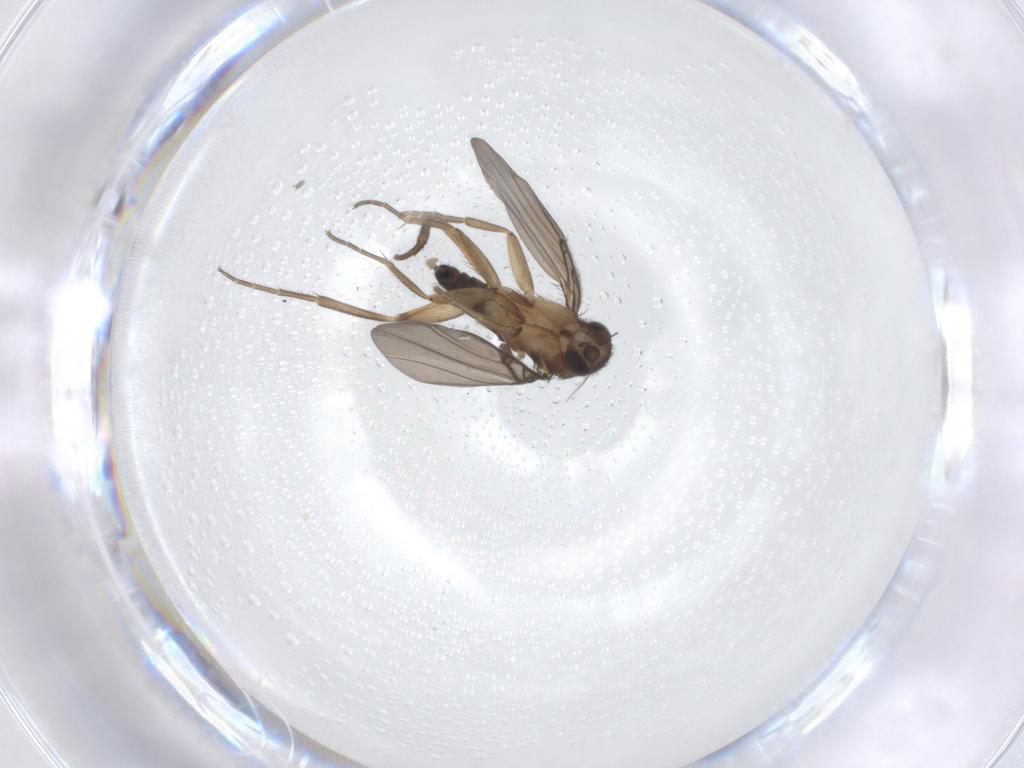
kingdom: Animalia
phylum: Arthropoda
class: Insecta
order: Diptera
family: Phoridae
